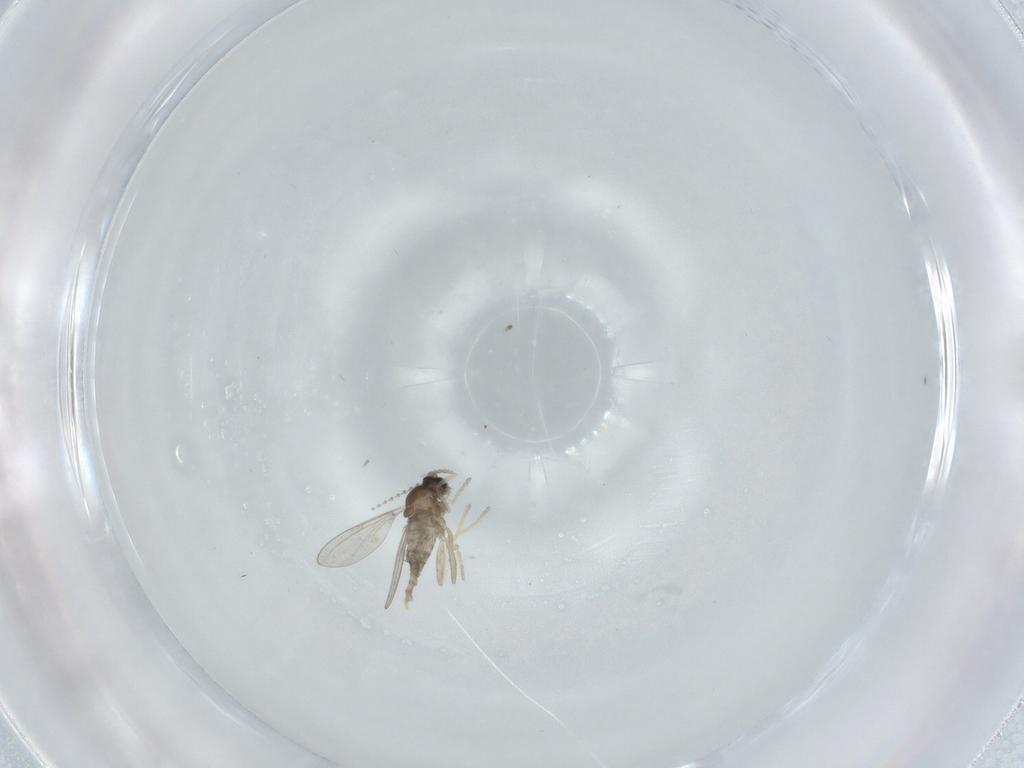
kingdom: Animalia
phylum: Arthropoda
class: Insecta
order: Diptera
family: Cecidomyiidae
